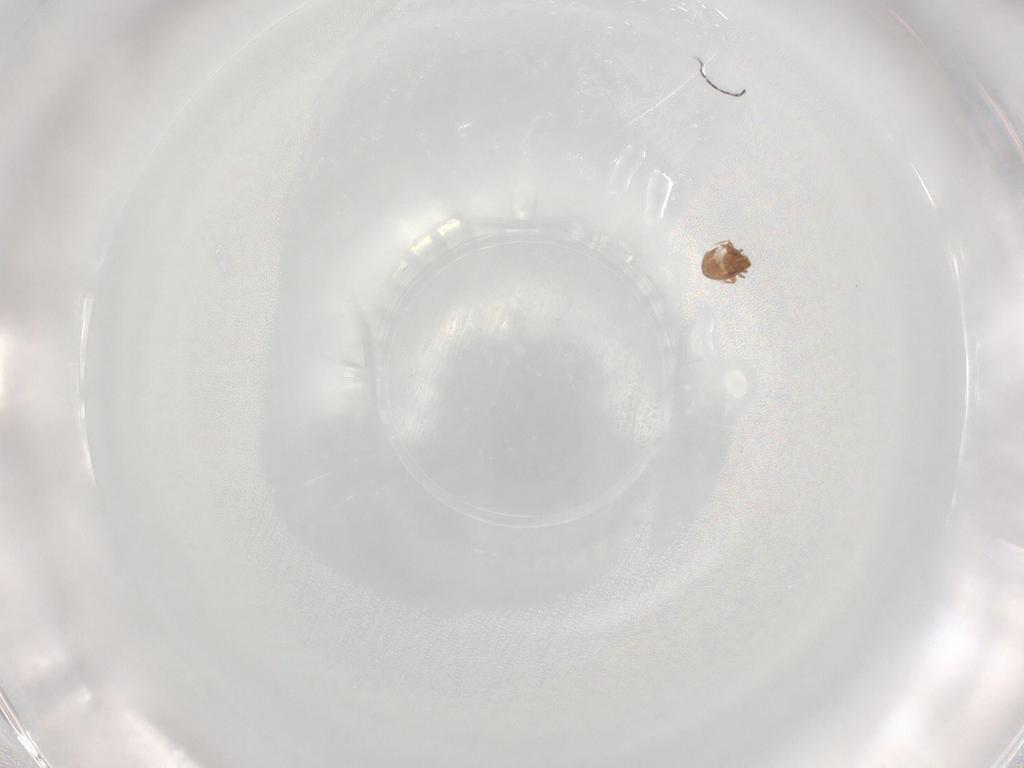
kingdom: Animalia
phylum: Arthropoda
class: Arachnida
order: Sarcoptiformes
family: Oribatulidae
